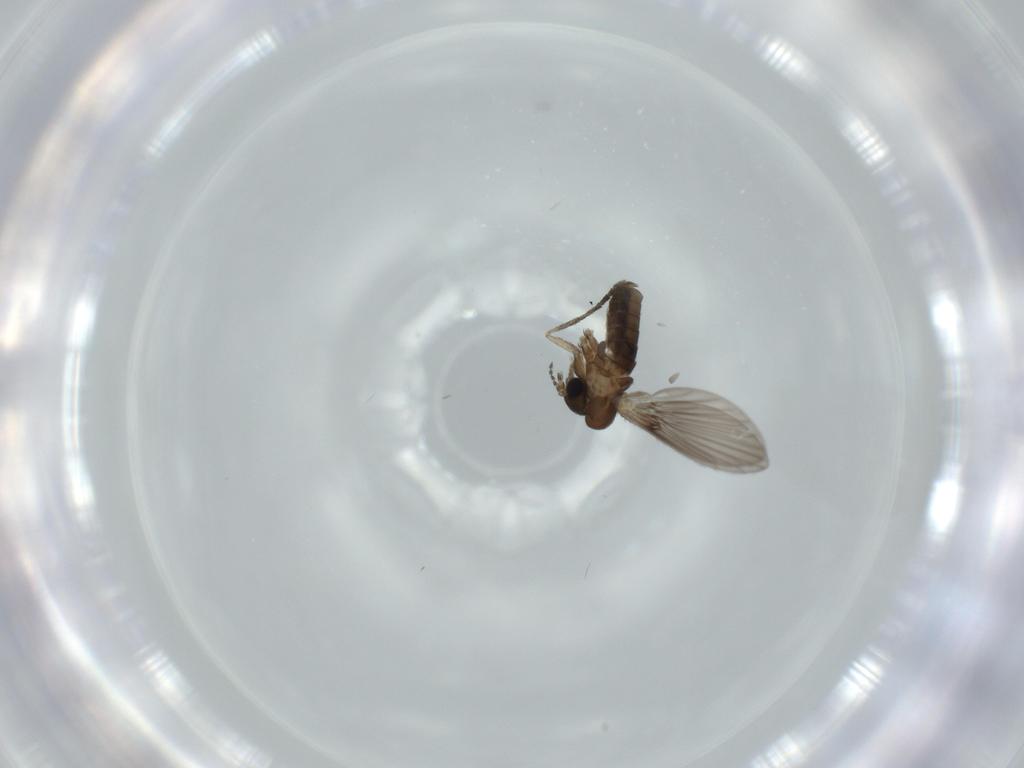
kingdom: Animalia
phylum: Arthropoda
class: Insecta
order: Diptera
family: Psychodidae
